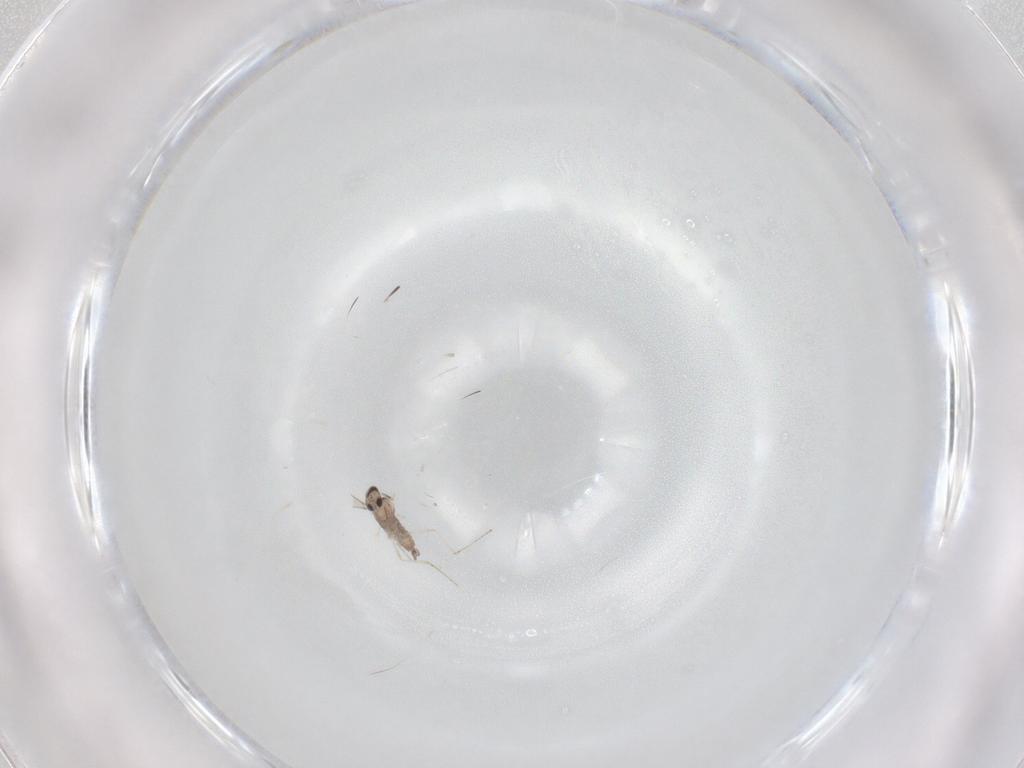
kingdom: Animalia
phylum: Arthropoda
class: Insecta
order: Diptera
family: Cecidomyiidae
